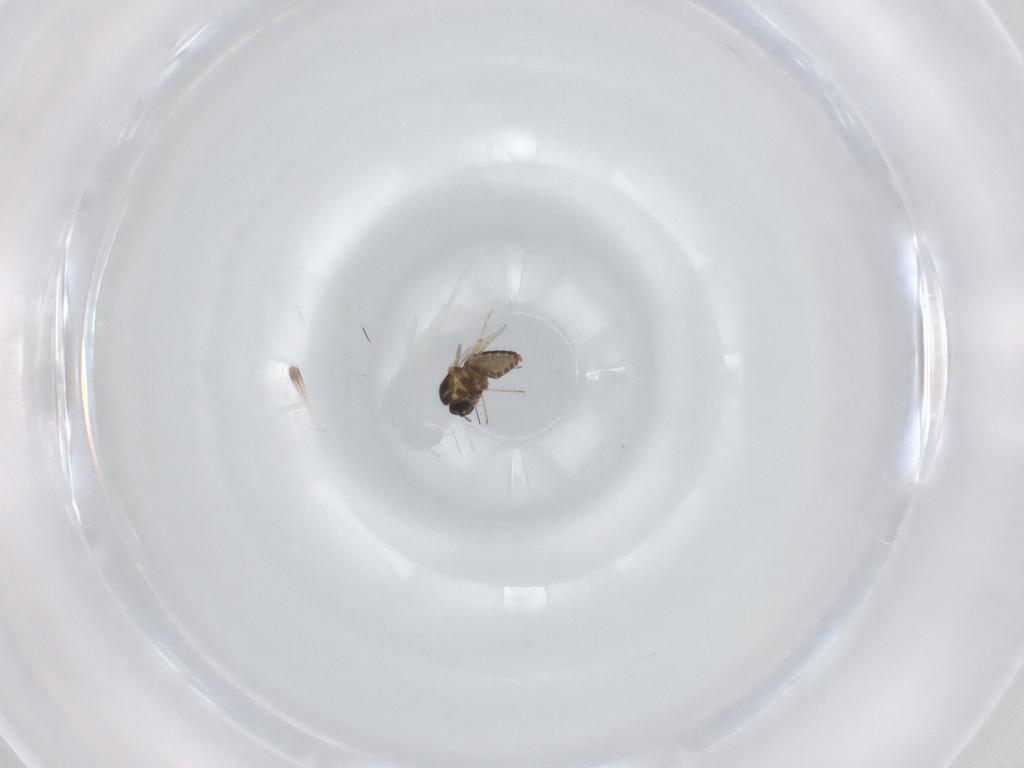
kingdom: Animalia
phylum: Arthropoda
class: Insecta
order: Diptera
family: Ceratopogonidae
